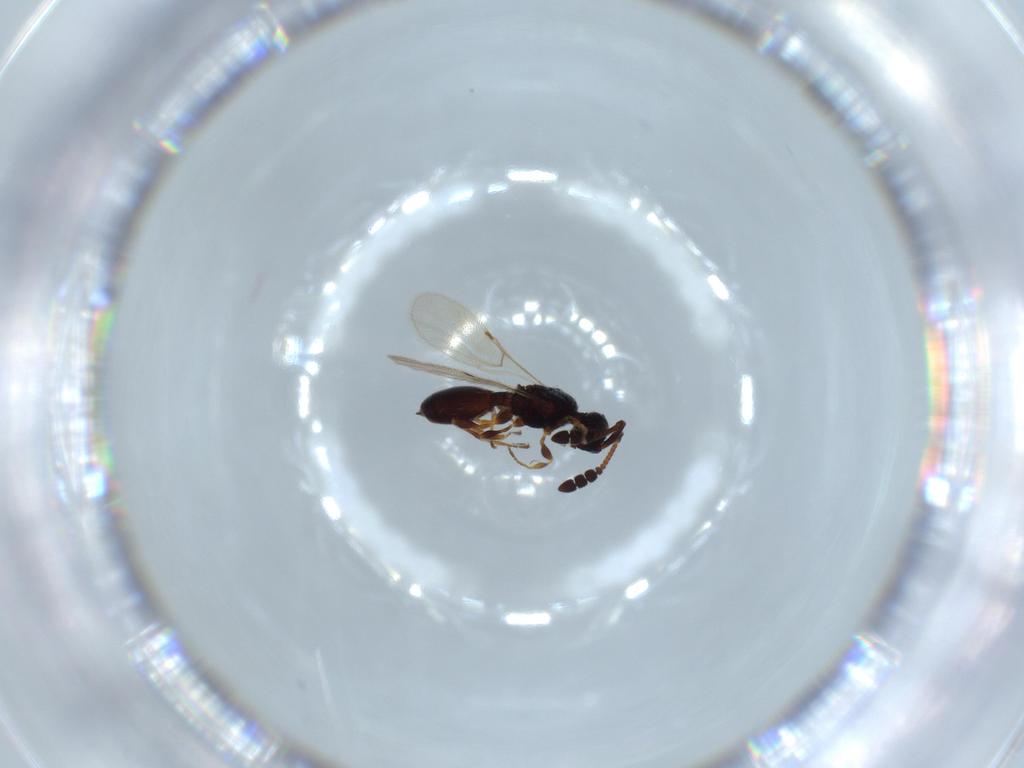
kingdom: Animalia
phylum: Arthropoda
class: Insecta
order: Hymenoptera
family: Diapriidae
